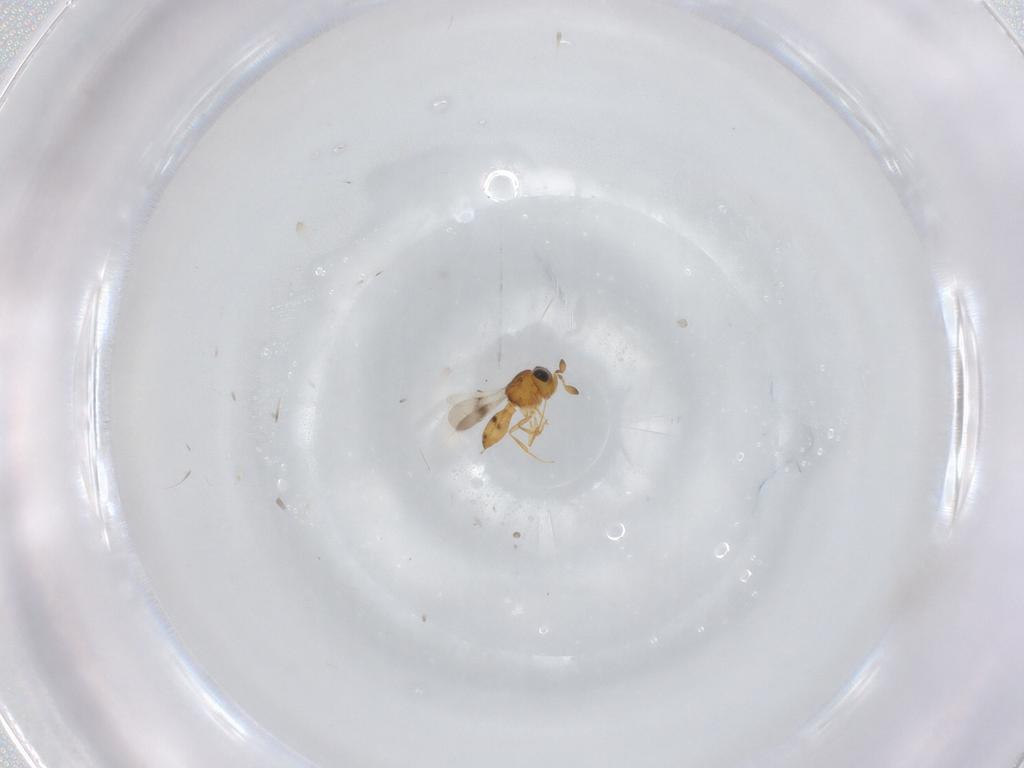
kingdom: Animalia
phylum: Arthropoda
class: Insecta
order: Hymenoptera
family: Scelionidae
